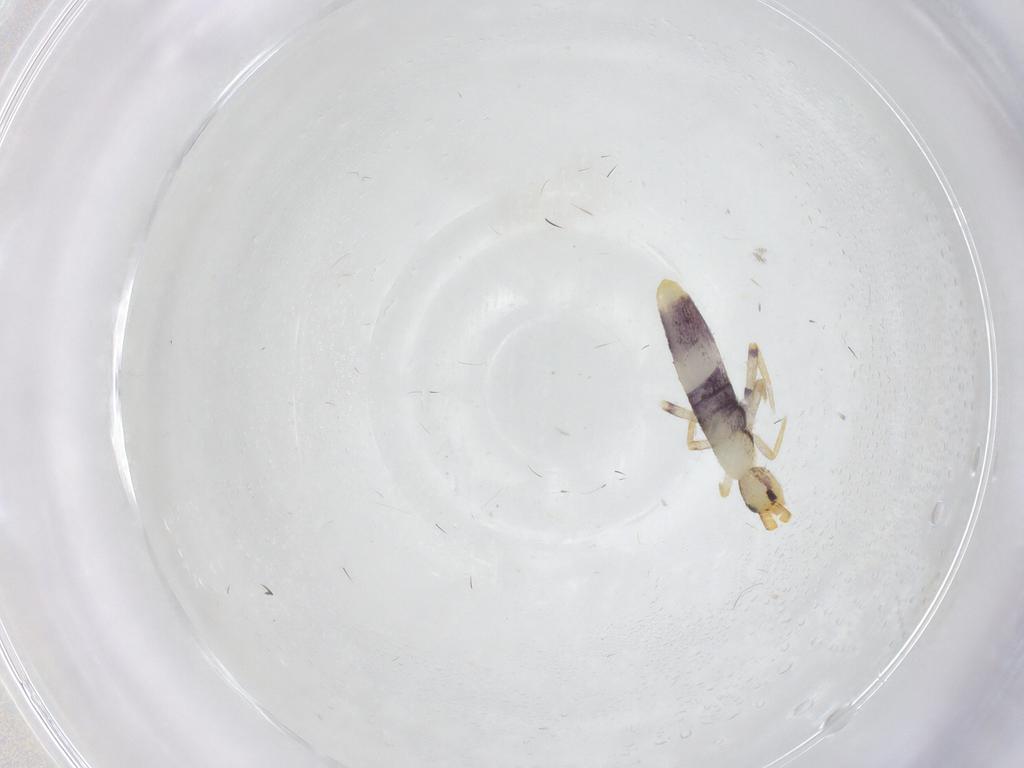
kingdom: Animalia
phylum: Arthropoda
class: Collembola
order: Entomobryomorpha
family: Entomobryidae
